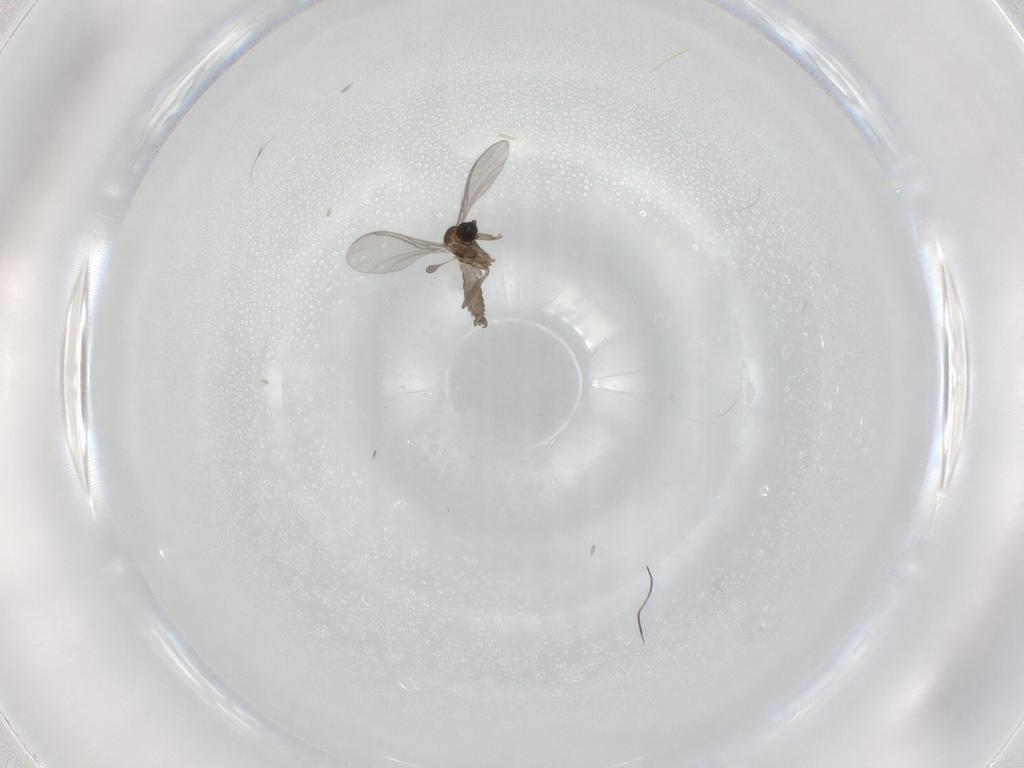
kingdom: Animalia
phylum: Arthropoda
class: Insecta
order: Diptera
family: Sciaridae
